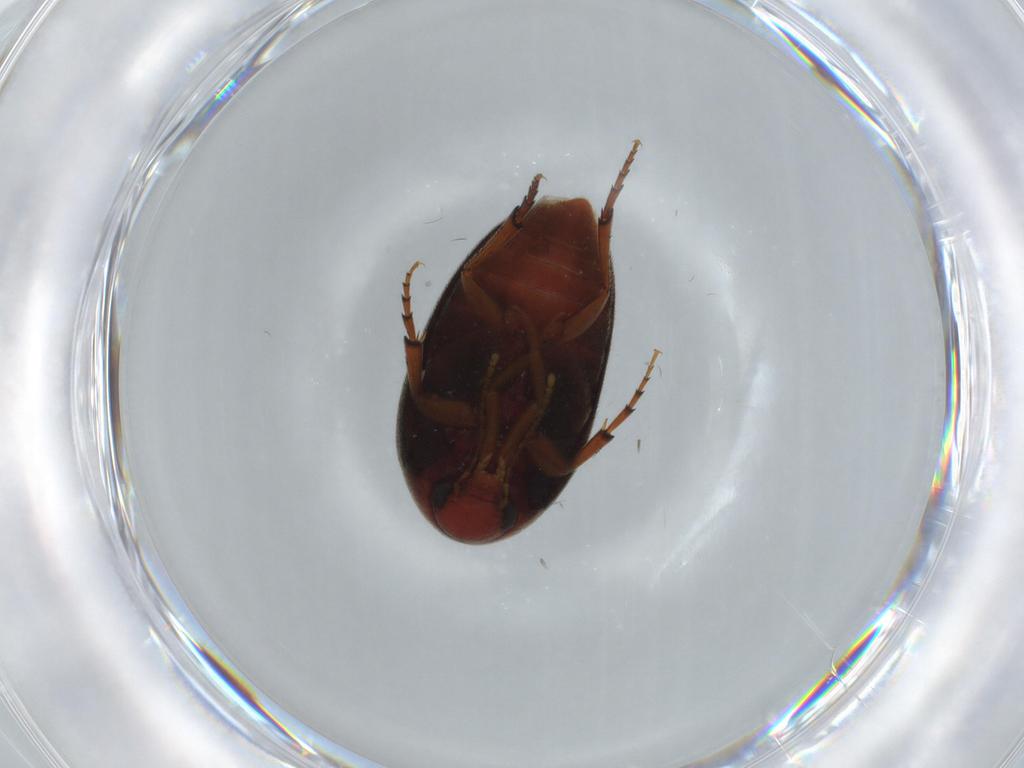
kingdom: Animalia
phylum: Arthropoda
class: Insecta
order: Coleoptera
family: Eucinetidae
